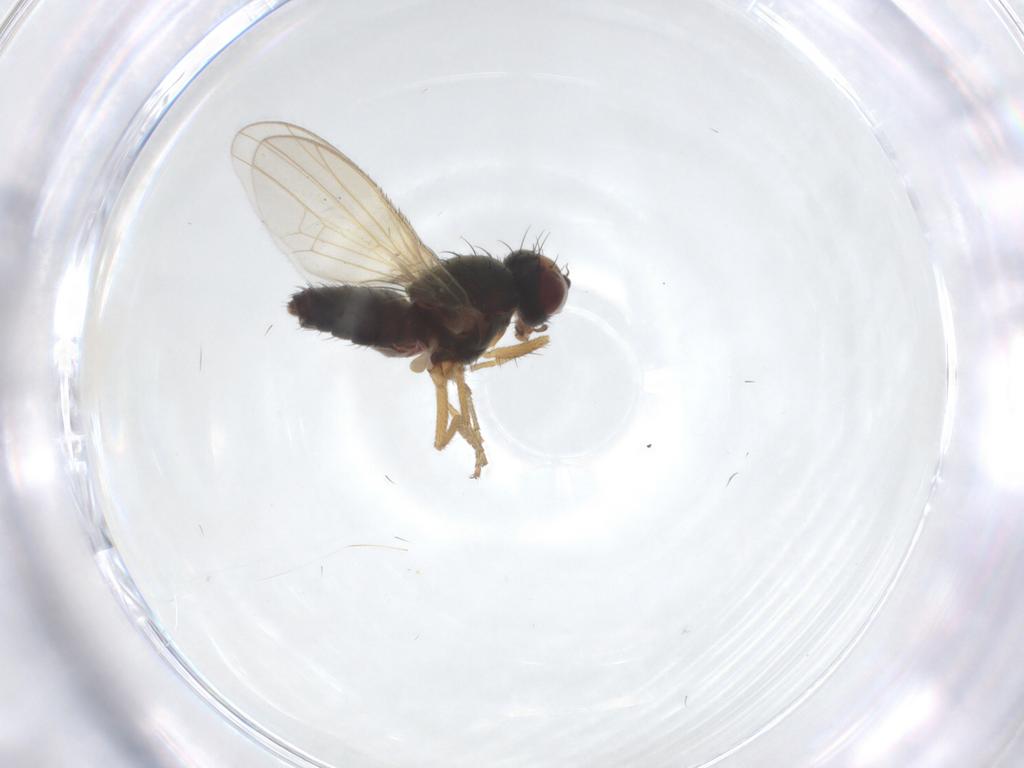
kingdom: Animalia
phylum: Arthropoda
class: Insecta
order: Diptera
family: Heleomyzidae
